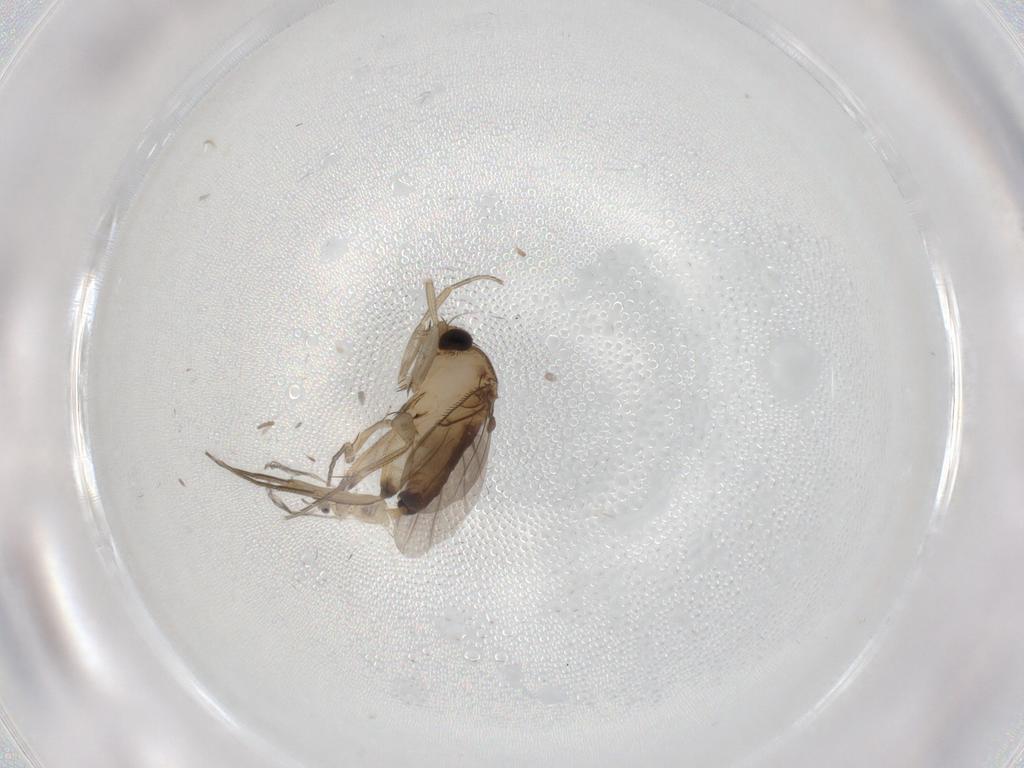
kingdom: Animalia
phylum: Arthropoda
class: Insecta
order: Diptera
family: Phoridae
